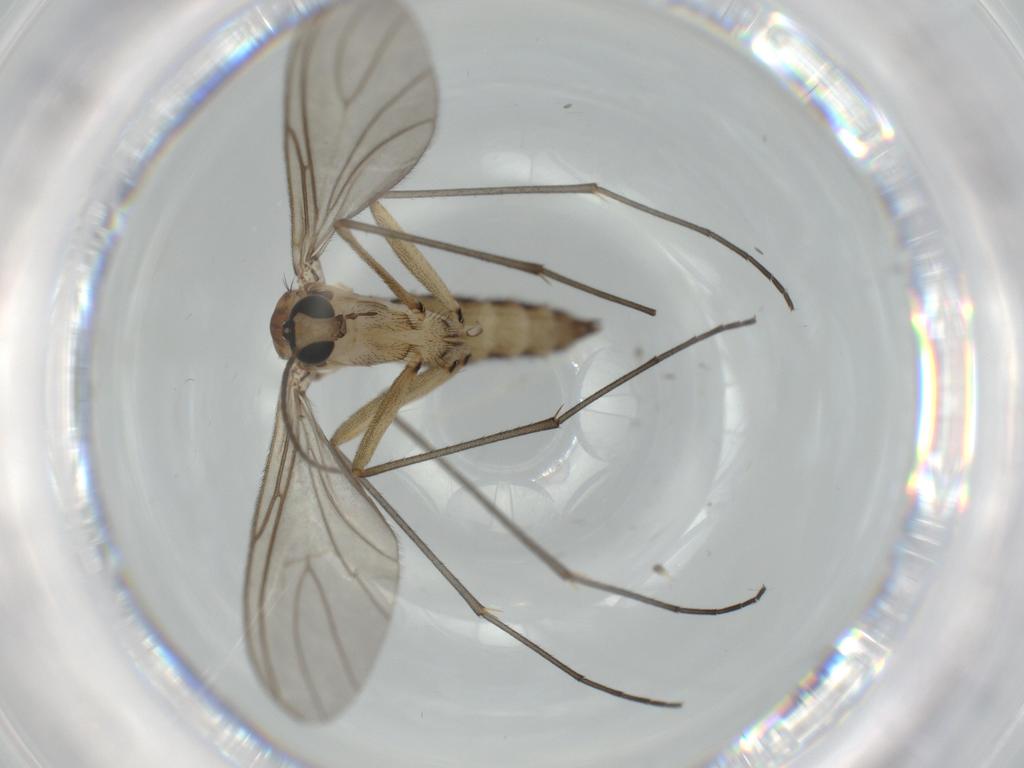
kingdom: Animalia
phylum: Arthropoda
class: Insecta
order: Diptera
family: Sciaridae
